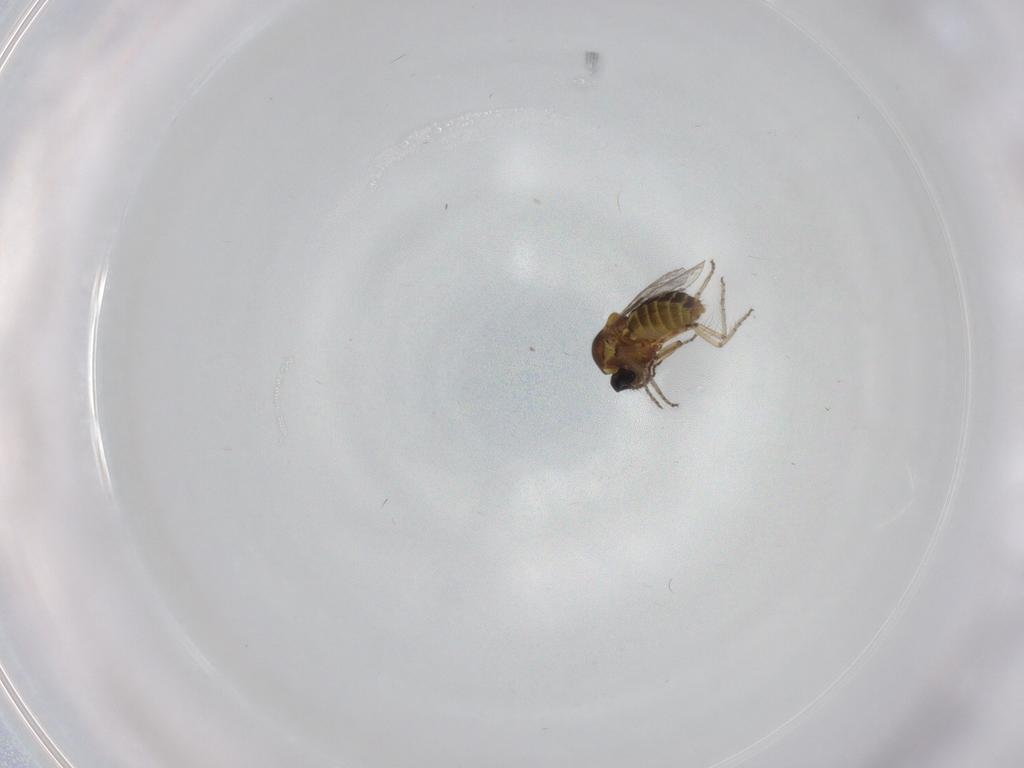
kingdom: Animalia
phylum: Arthropoda
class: Insecta
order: Diptera
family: Ceratopogonidae
